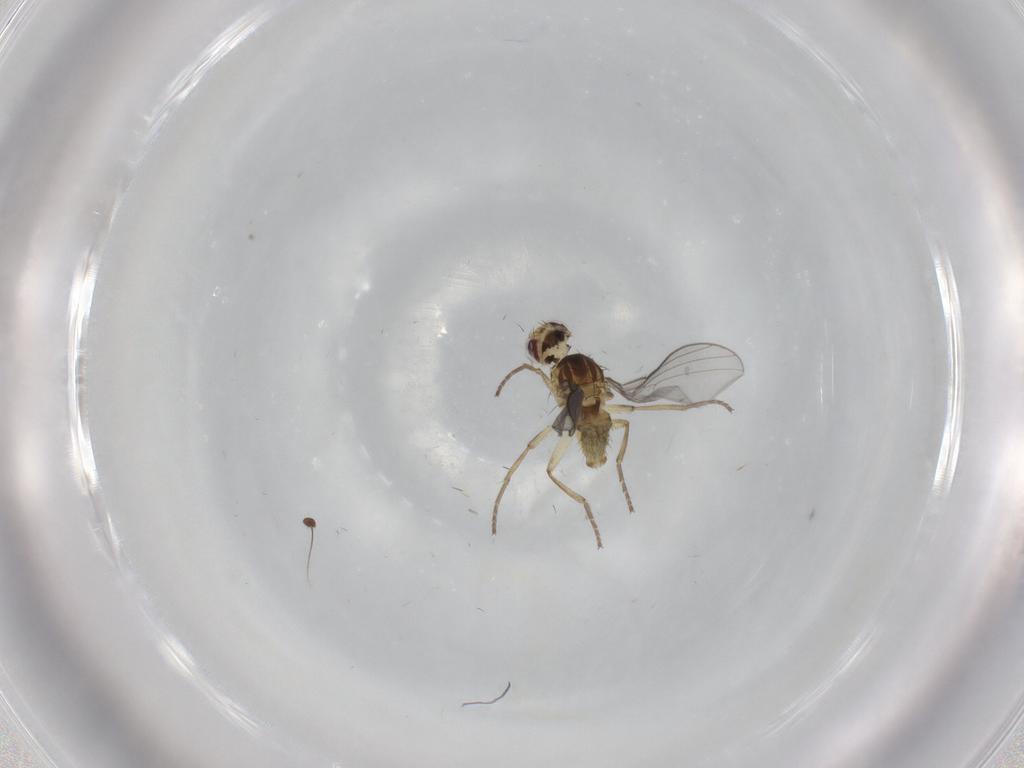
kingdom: Animalia
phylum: Arthropoda
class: Insecta
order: Diptera
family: Agromyzidae
